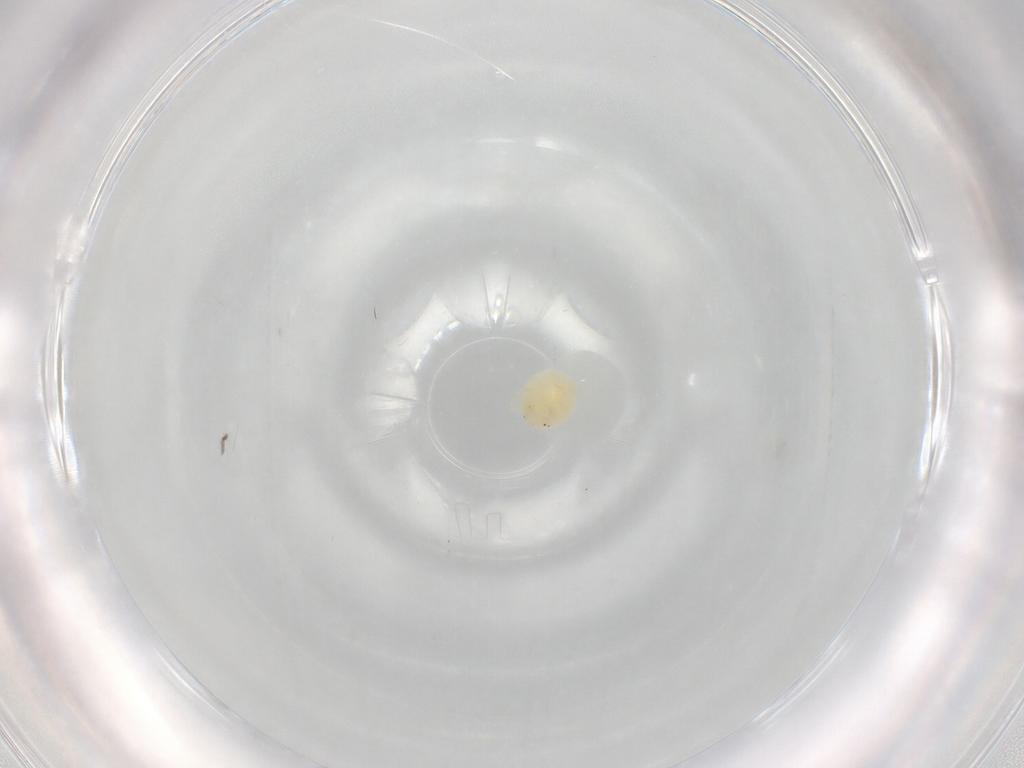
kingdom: Animalia
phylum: Arthropoda
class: Arachnida
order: Trombidiformes
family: Hydryphantidae
